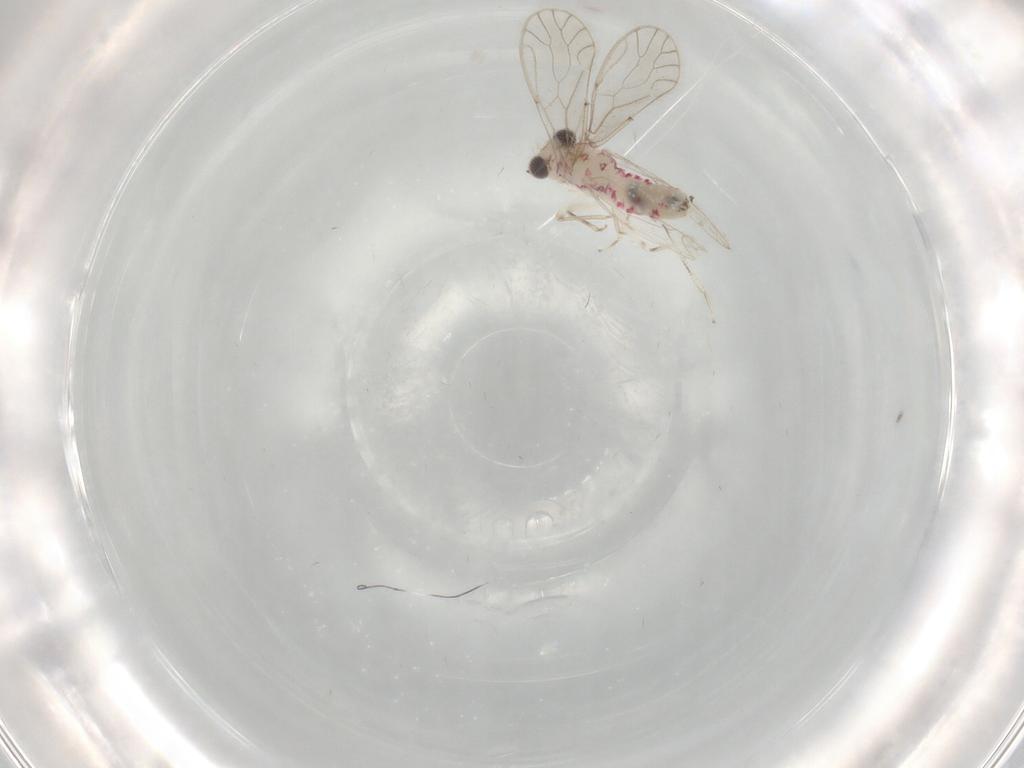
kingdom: Animalia
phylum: Arthropoda
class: Insecta
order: Psocodea
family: Caeciliusidae
